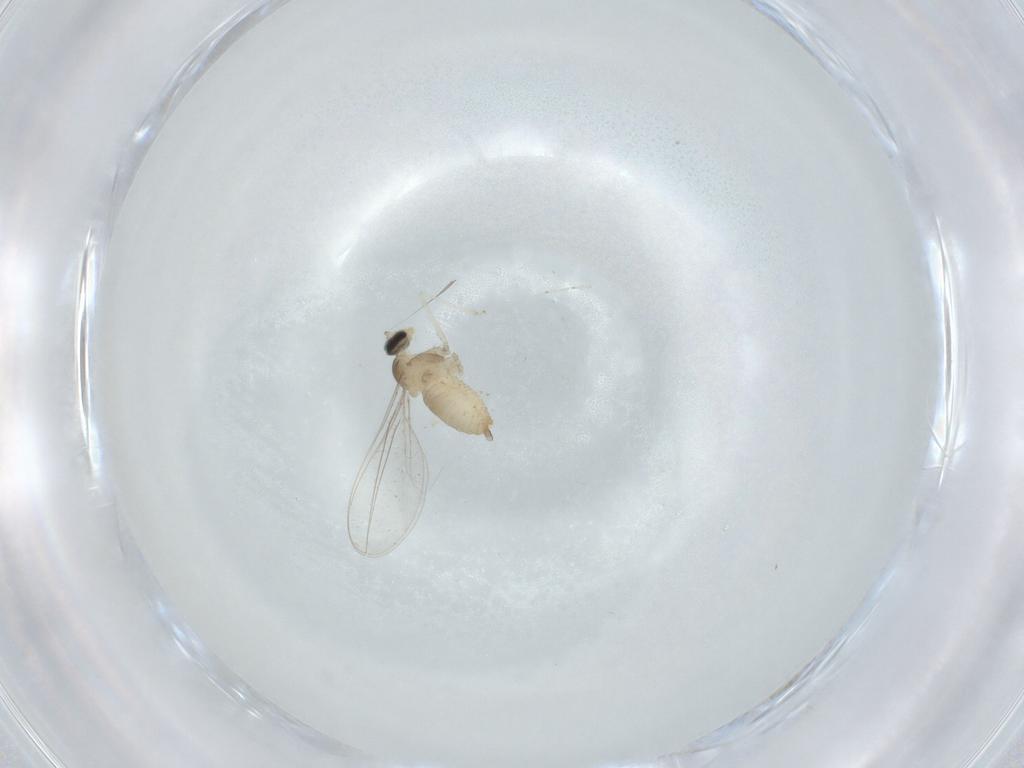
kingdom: Animalia
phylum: Arthropoda
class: Insecta
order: Diptera
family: Cecidomyiidae
